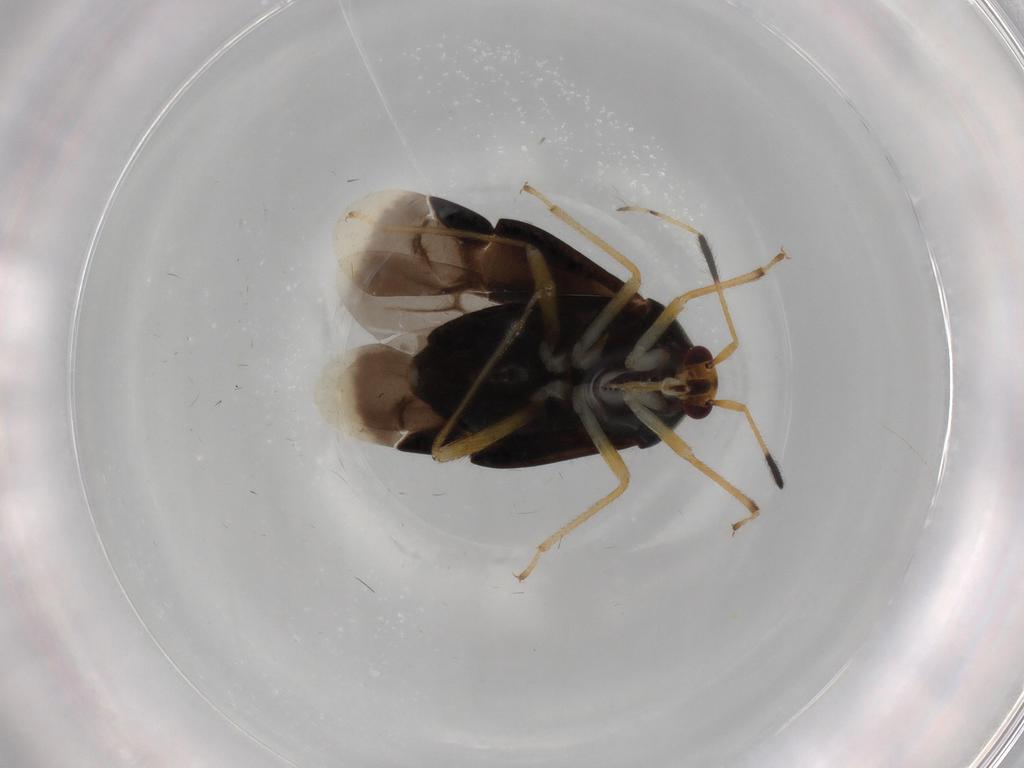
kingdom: Animalia
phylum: Arthropoda
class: Insecta
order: Hemiptera
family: Miridae
